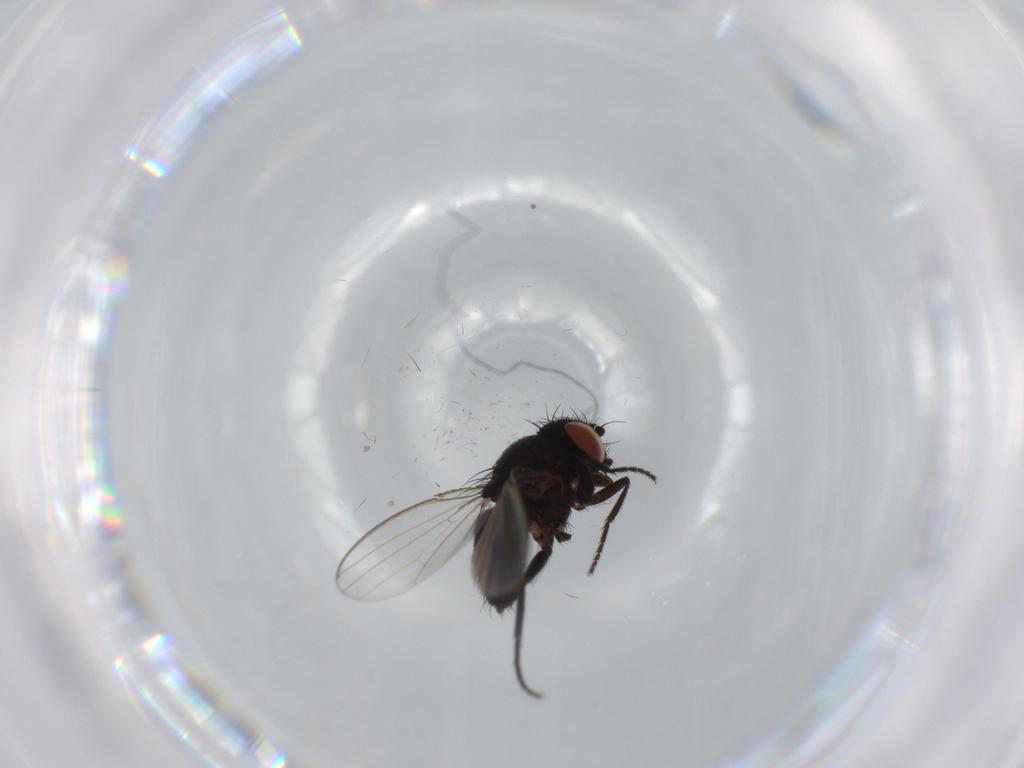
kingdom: Animalia
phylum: Arthropoda
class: Insecta
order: Diptera
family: Milichiidae
